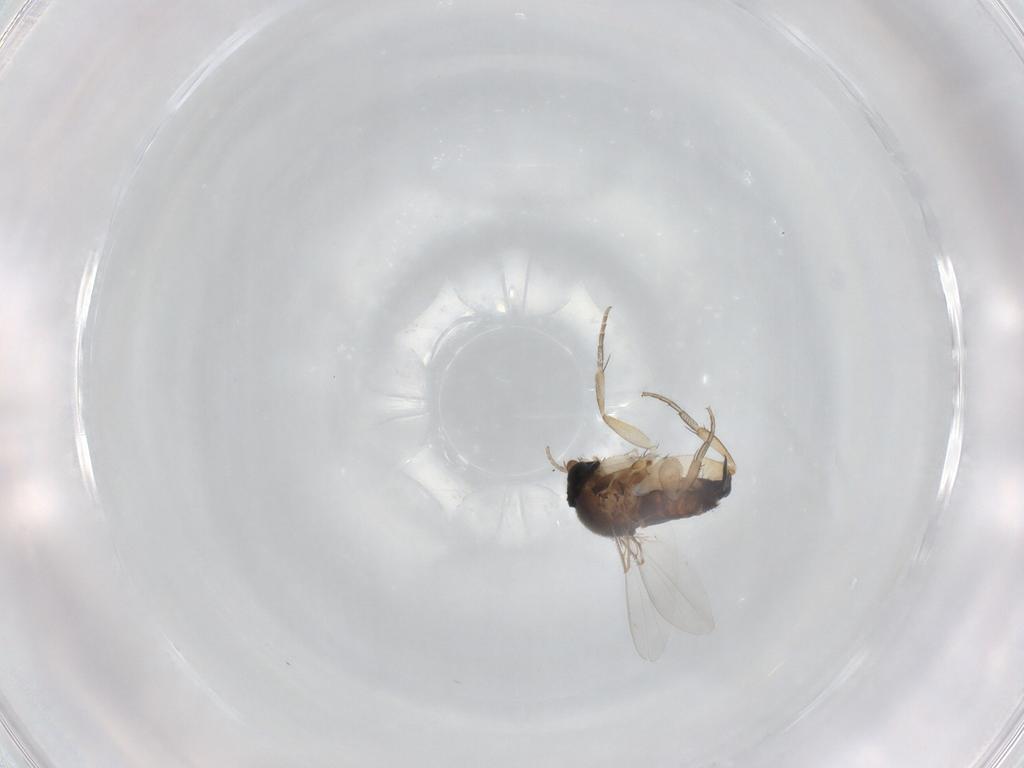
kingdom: Animalia
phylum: Arthropoda
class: Insecta
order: Diptera
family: Phoridae
